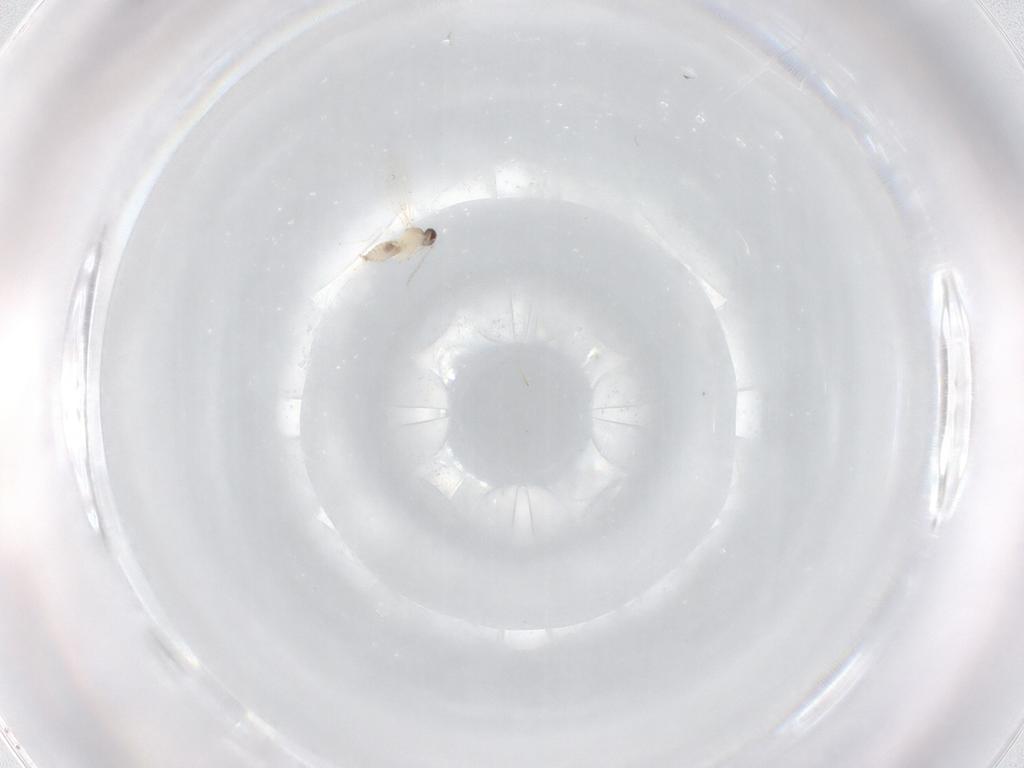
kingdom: Animalia
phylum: Arthropoda
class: Insecta
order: Diptera
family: Cecidomyiidae
